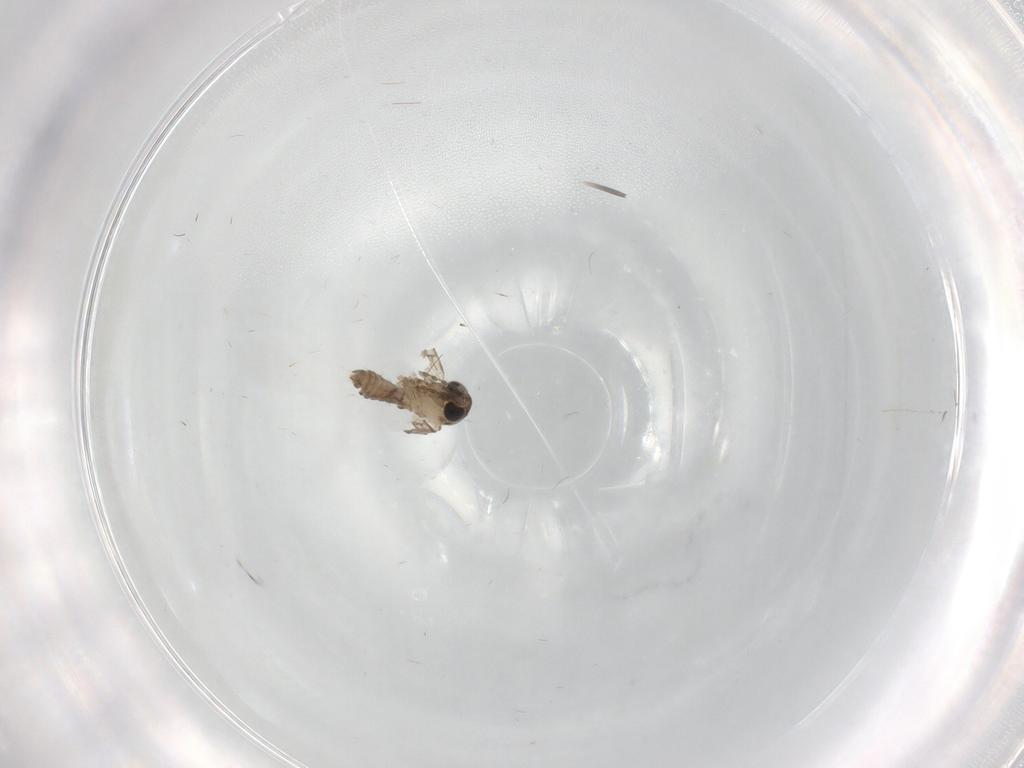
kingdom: Animalia
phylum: Arthropoda
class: Insecta
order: Diptera
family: Psychodidae
